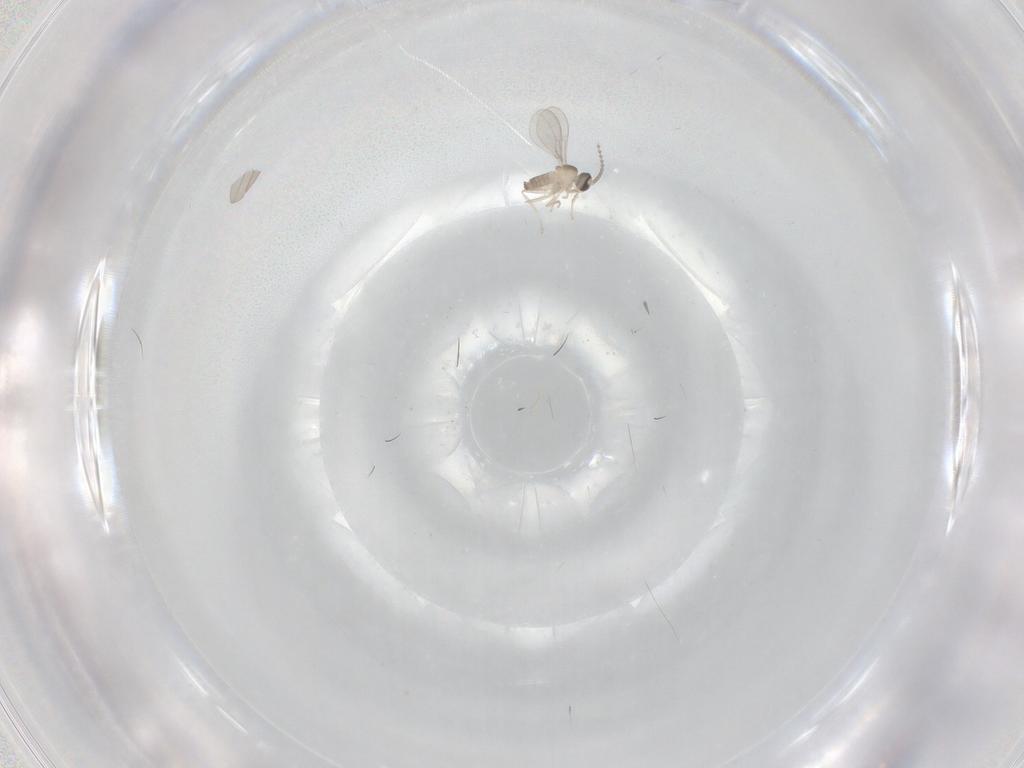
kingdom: Animalia
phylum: Arthropoda
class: Insecta
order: Diptera
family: Cecidomyiidae
